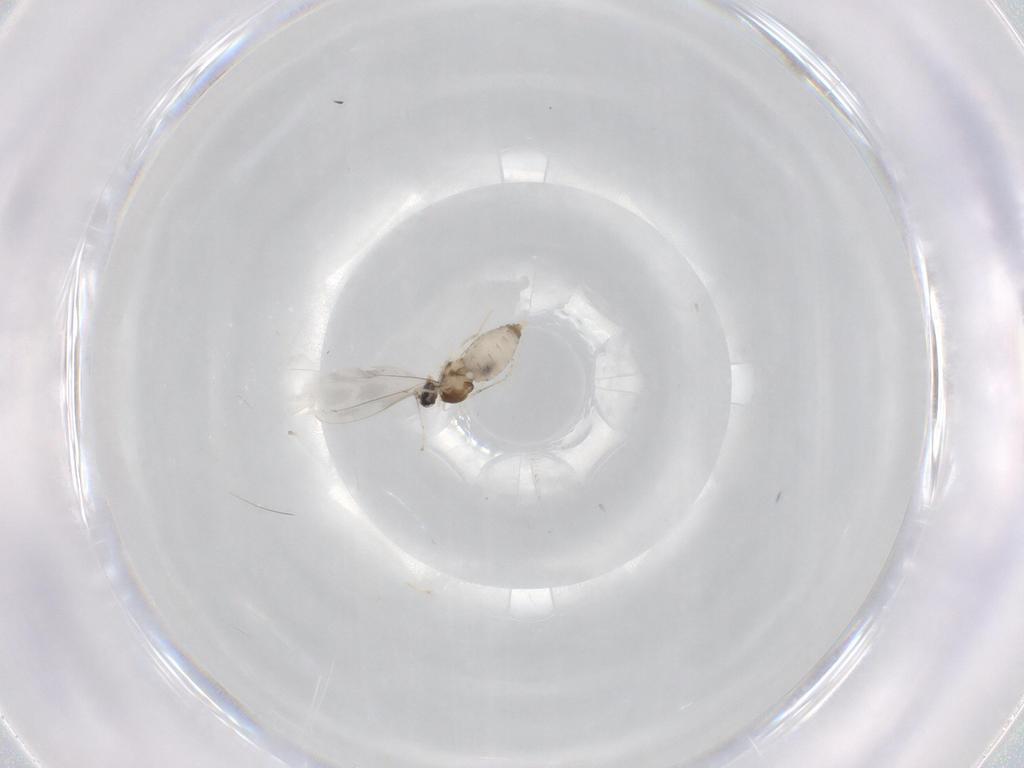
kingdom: Animalia
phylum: Arthropoda
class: Insecta
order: Diptera
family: Cecidomyiidae
